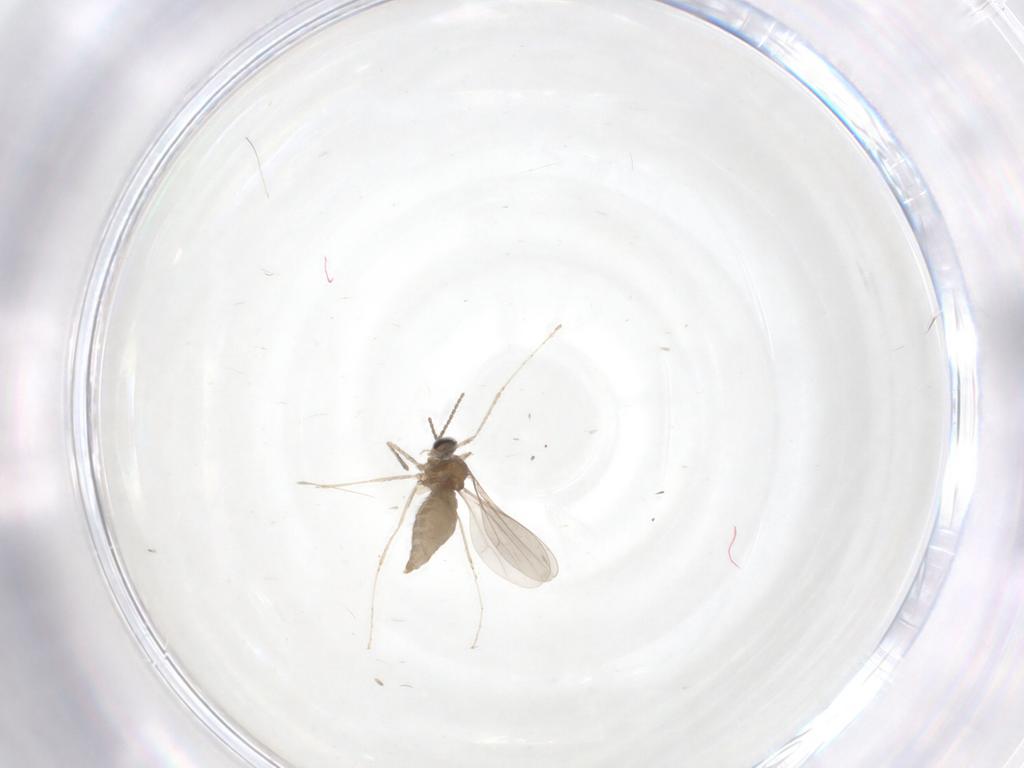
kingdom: Animalia
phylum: Arthropoda
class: Insecta
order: Diptera
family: Cecidomyiidae
